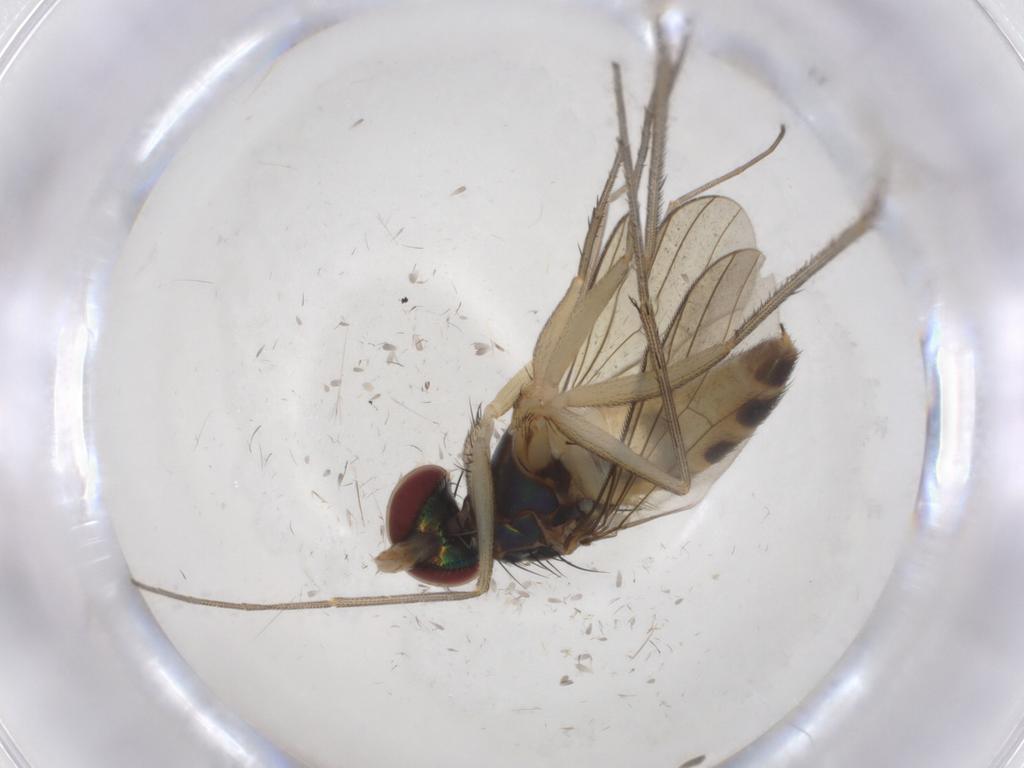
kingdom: Animalia
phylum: Arthropoda
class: Insecta
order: Diptera
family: Dolichopodidae
